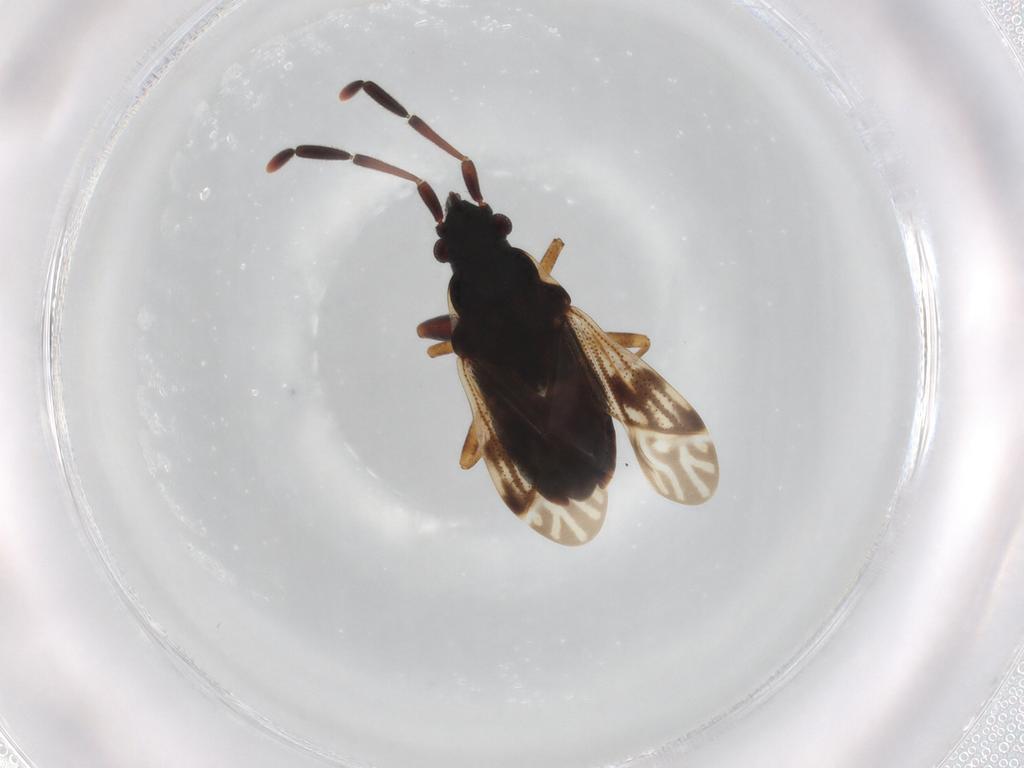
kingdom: Animalia
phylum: Arthropoda
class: Insecta
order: Hemiptera
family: Rhyparochromidae
